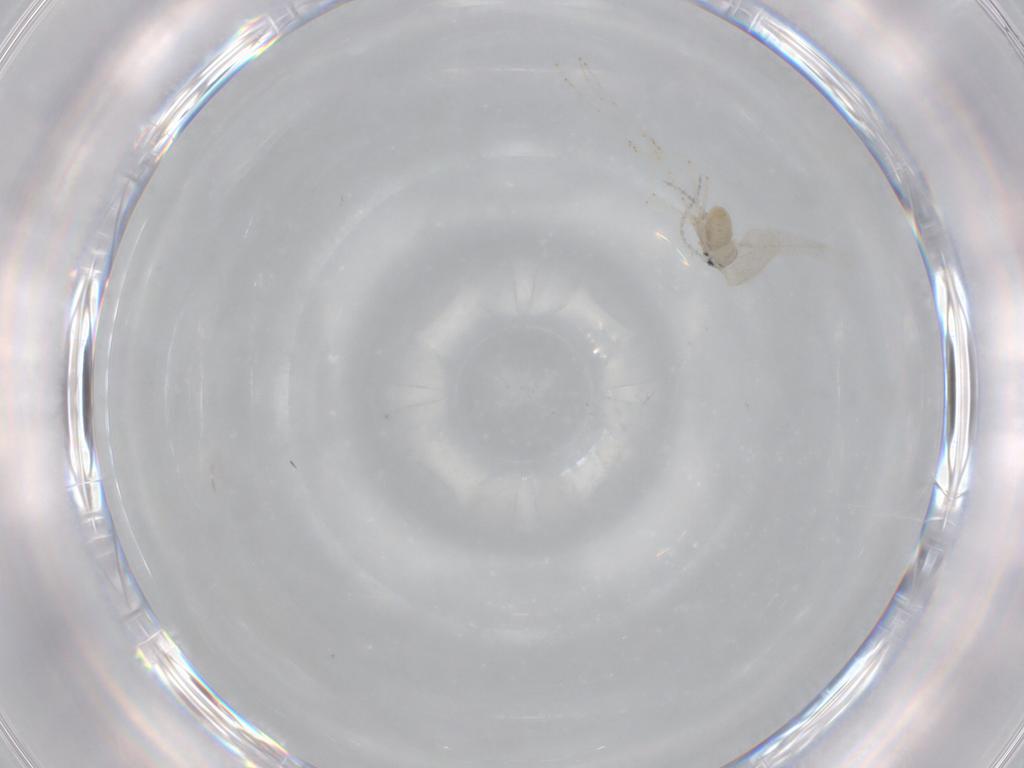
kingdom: Animalia
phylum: Arthropoda
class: Insecta
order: Diptera
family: Cecidomyiidae
